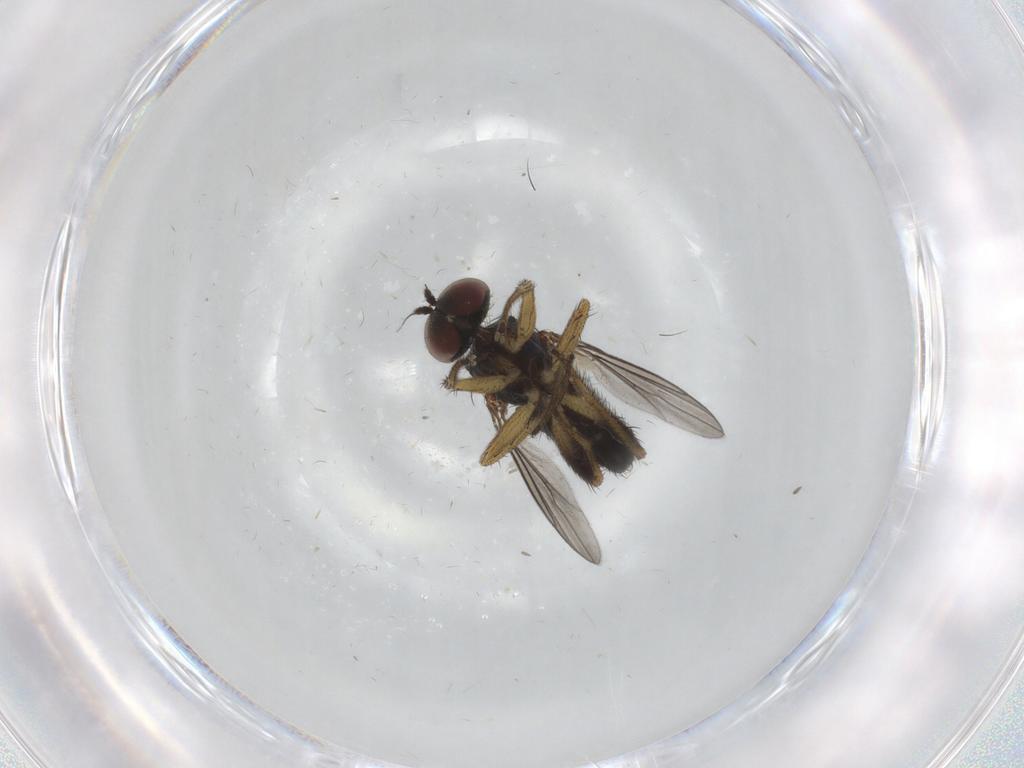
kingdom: Animalia
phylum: Arthropoda
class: Insecta
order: Diptera
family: Dolichopodidae
